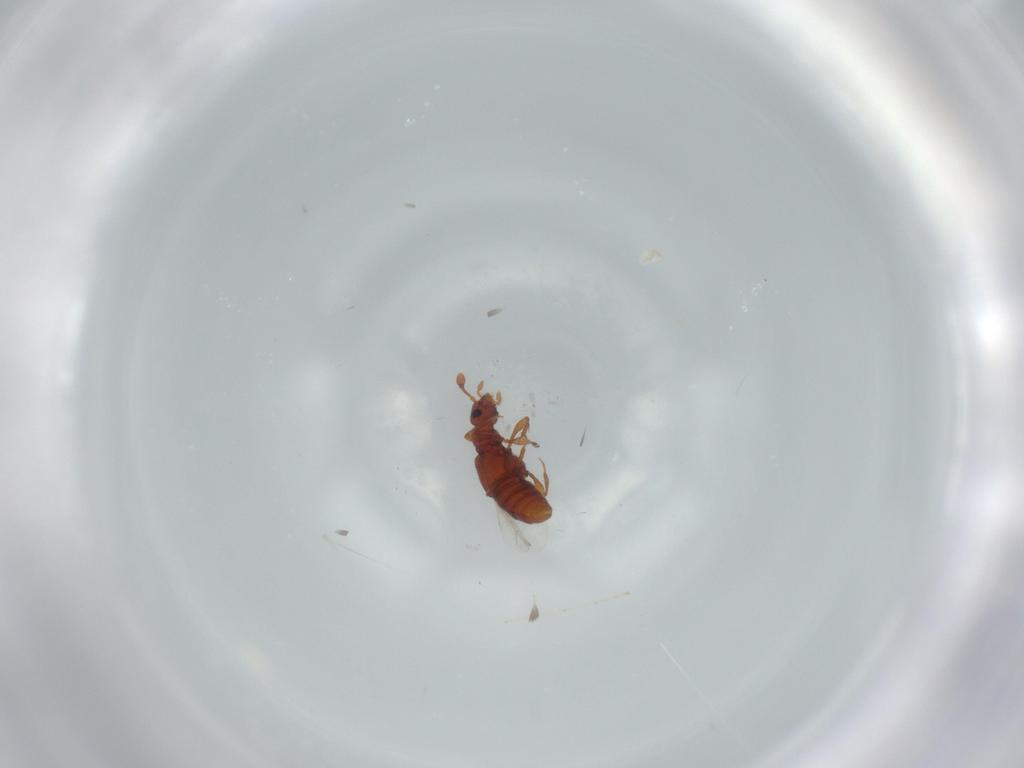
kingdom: Animalia
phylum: Arthropoda
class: Insecta
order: Coleoptera
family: Staphylinidae
